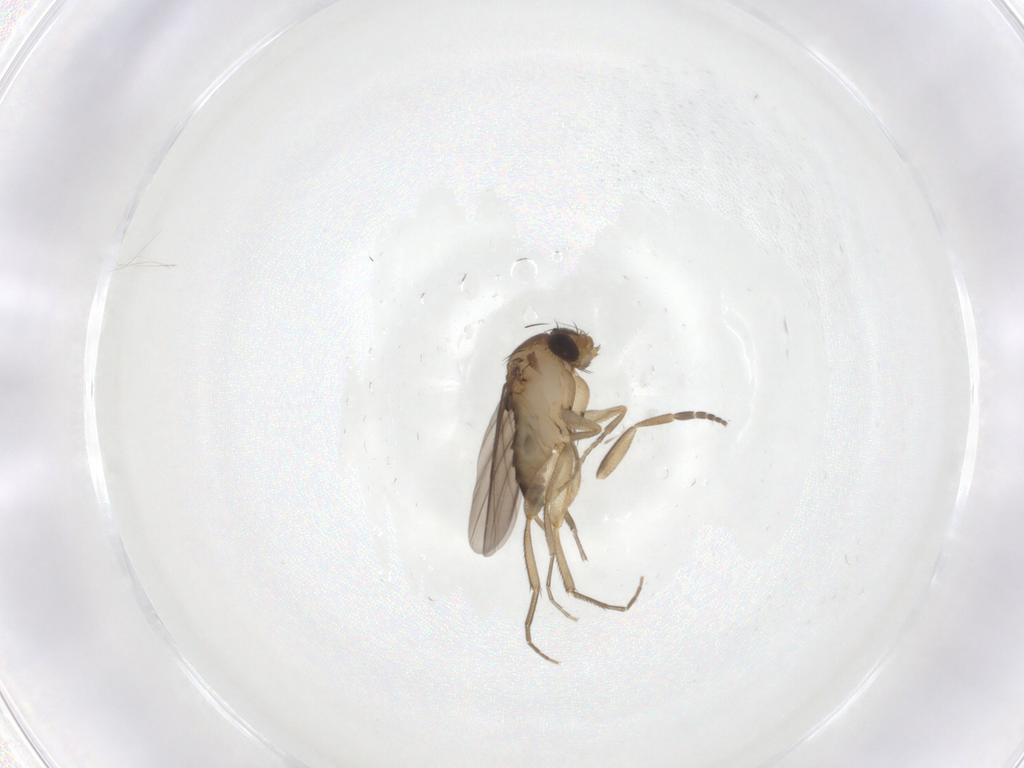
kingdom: Animalia
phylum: Arthropoda
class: Insecta
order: Diptera
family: Phoridae
